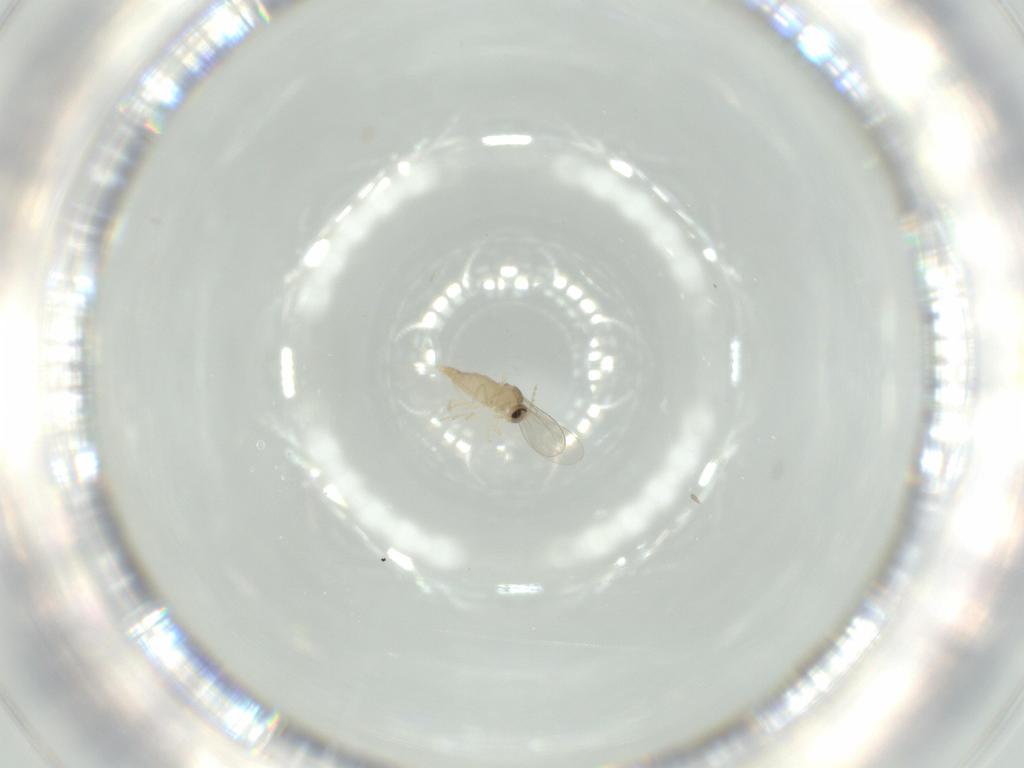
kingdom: Animalia
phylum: Arthropoda
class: Insecta
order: Diptera
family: Cecidomyiidae
